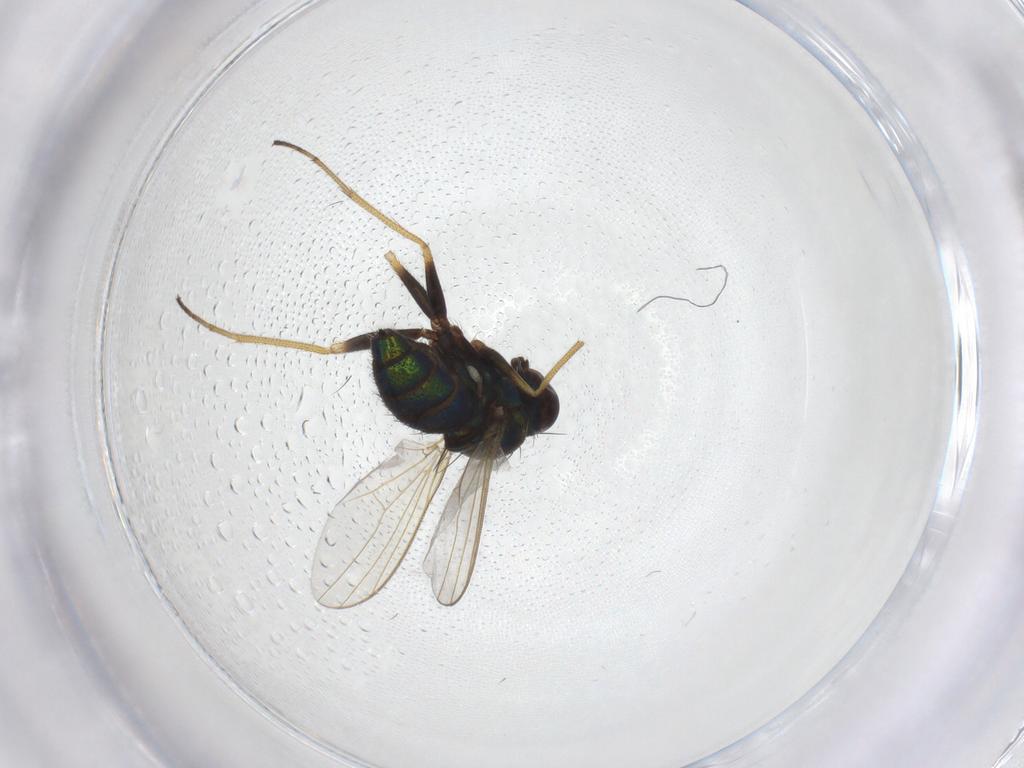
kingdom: Animalia
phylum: Arthropoda
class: Insecta
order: Diptera
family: Dolichopodidae
